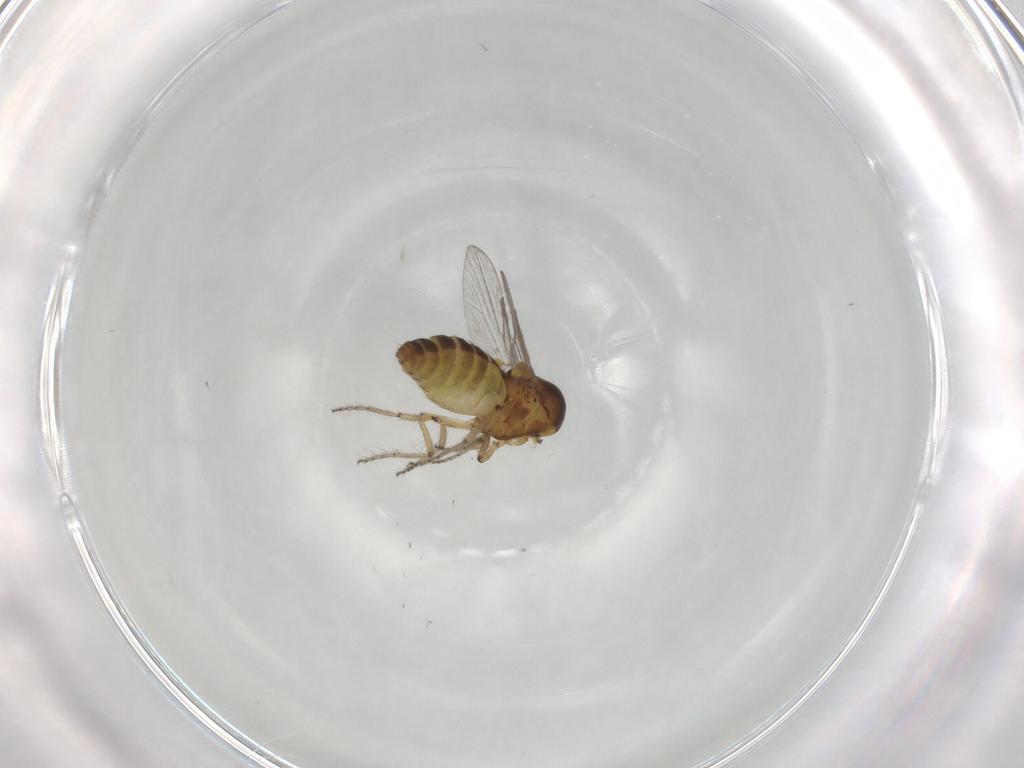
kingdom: Animalia
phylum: Arthropoda
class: Insecta
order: Diptera
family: Ceratopogonidae
